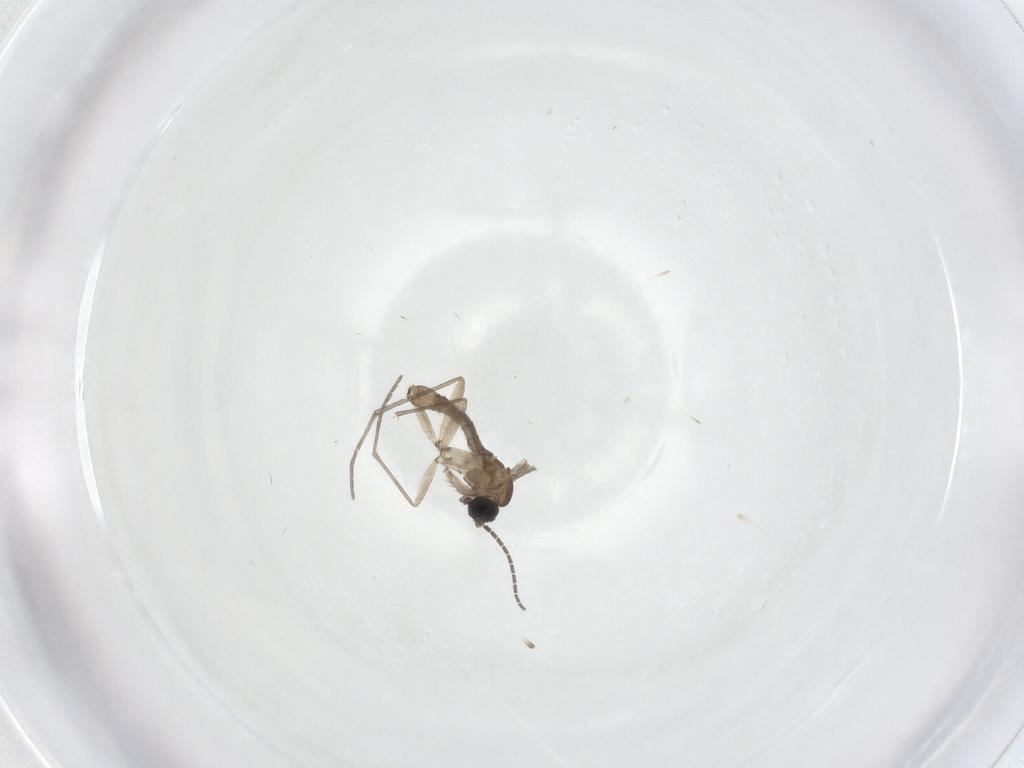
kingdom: Animalia
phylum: Arthropoda
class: Insecta
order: Diptera
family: Sciaridae
